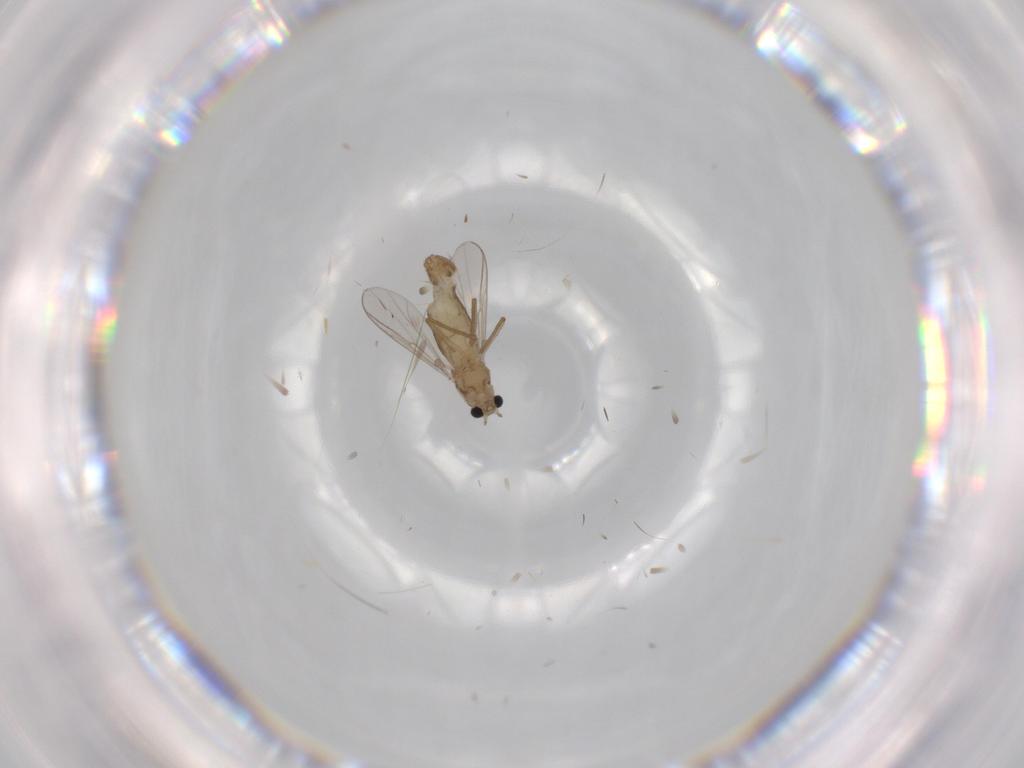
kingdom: Animalia
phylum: Arthropoda
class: Insecta
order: Diptera
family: Chironomidae
